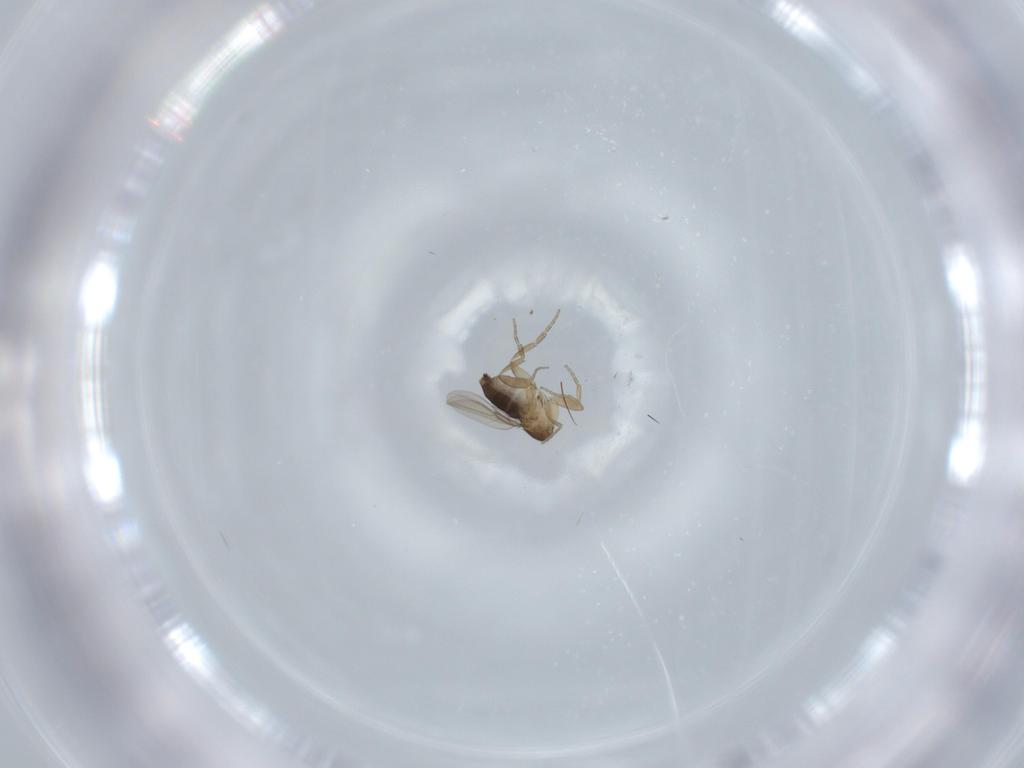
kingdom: Animalia
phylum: Arthropoda
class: Insecta
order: Diptera
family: Phoridae
